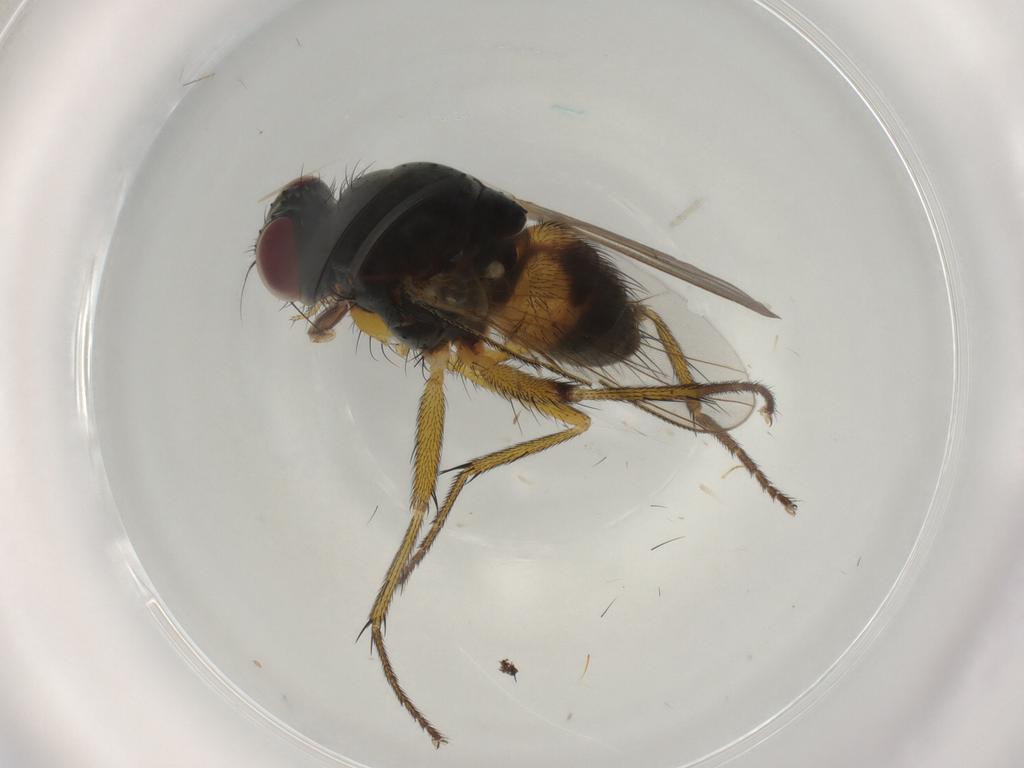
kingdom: Animalia
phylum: Arthropoda
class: Insecta
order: Diptera
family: Muscidae
